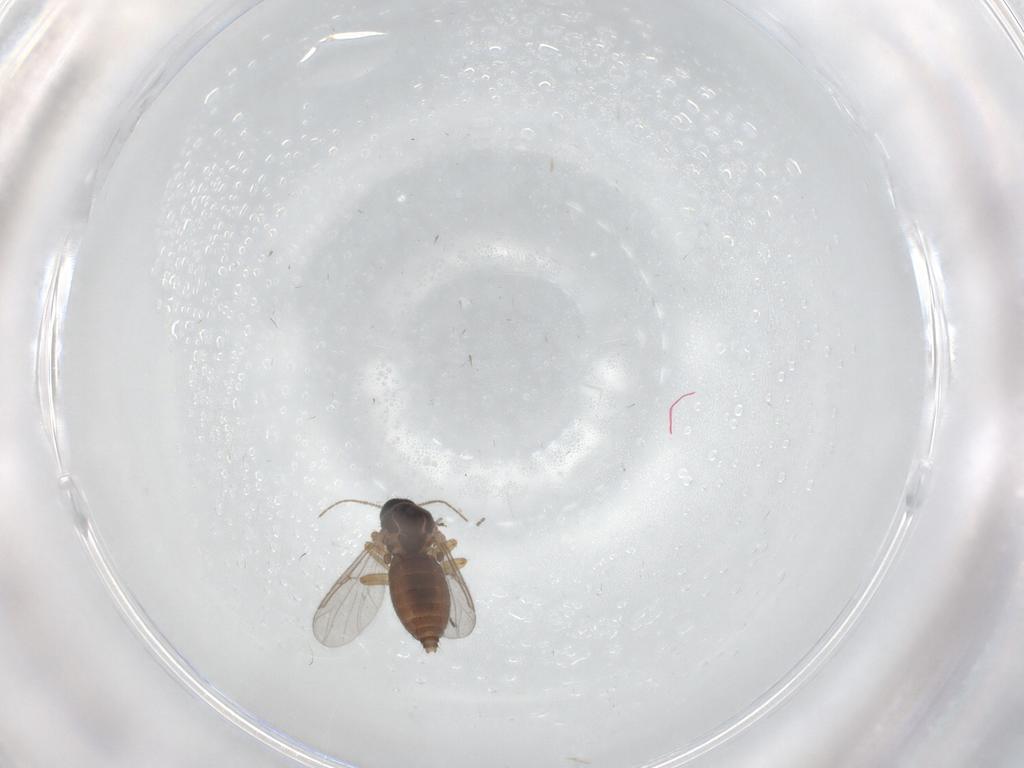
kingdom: Animalia
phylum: Arthropoda
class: Insecta
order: Diptera
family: Ceratopogonidae
